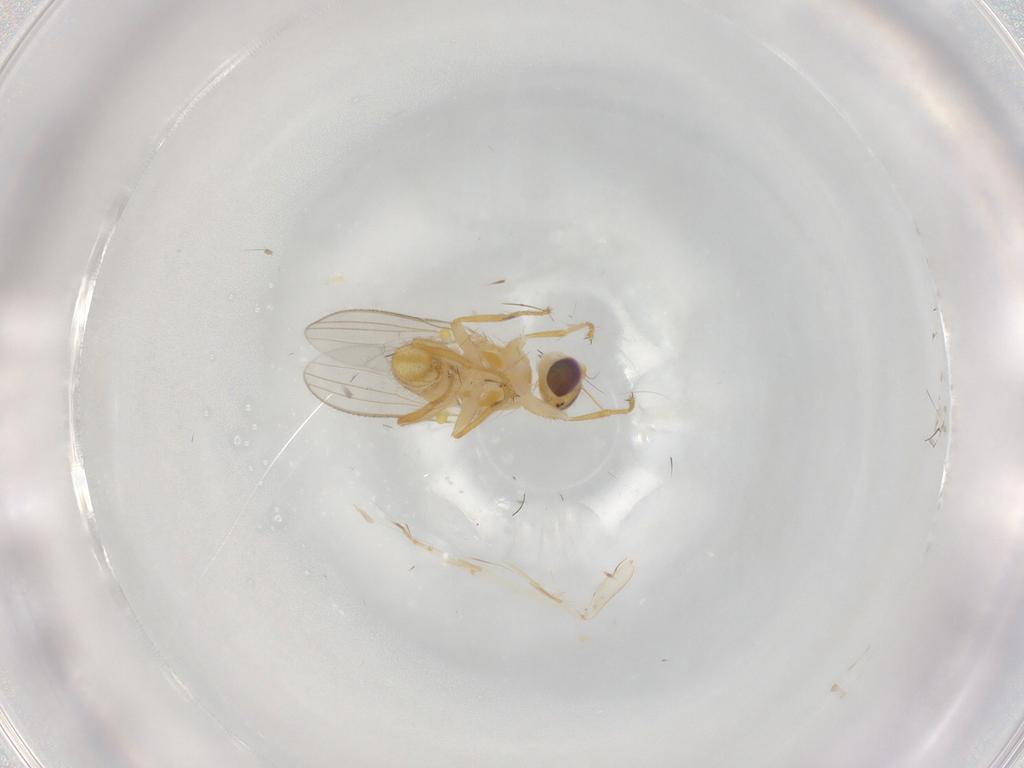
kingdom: Animalia
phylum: Arthropoda
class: Insecta
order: Diptera
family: Chyromyidae
